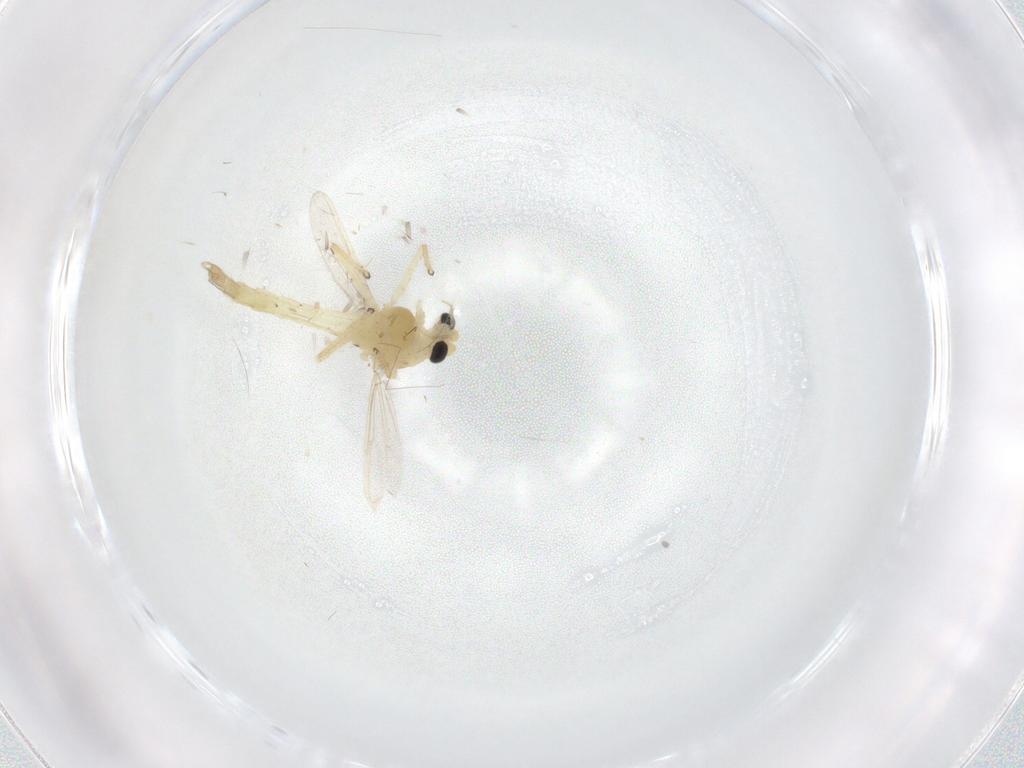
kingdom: Animalia
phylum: Arthropoda
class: Insecta
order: Diptera
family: Chironomidae
